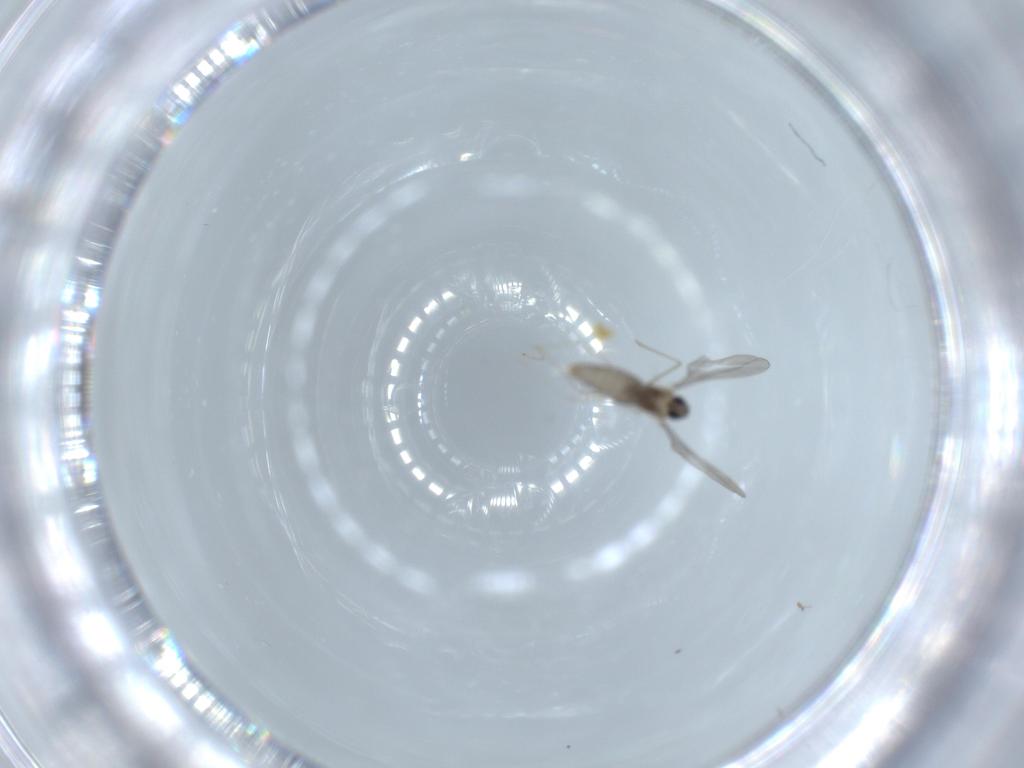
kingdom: Animalia
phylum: Arthropoda
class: Insecta
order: Diptera
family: Cecidomyiidae
